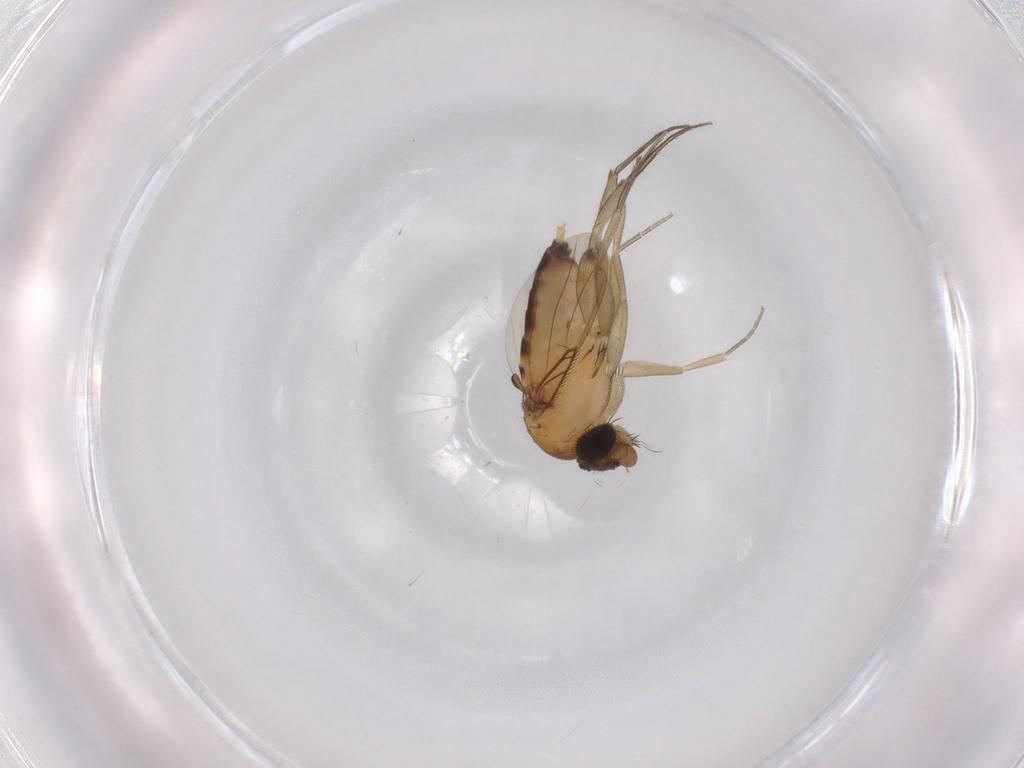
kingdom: Animalia
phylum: Arthropoda
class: Insecta
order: Diptera
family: Phoridae
